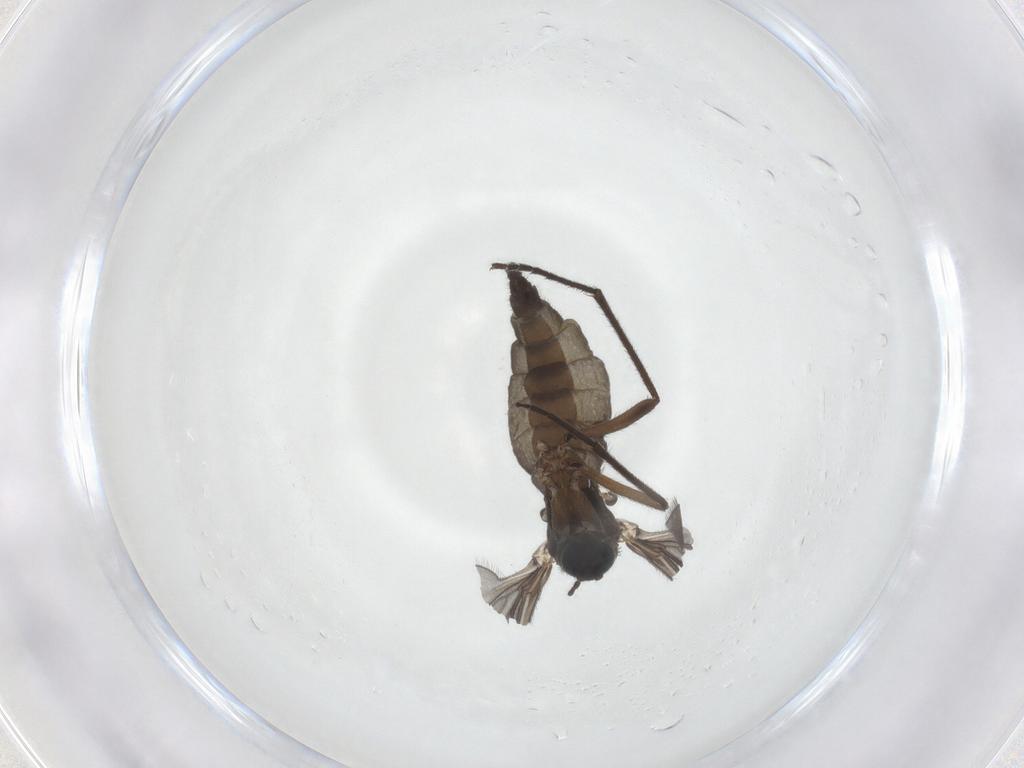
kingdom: Animalia
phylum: Arthropoda
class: Insecta
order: Diptera
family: Sciaridae
